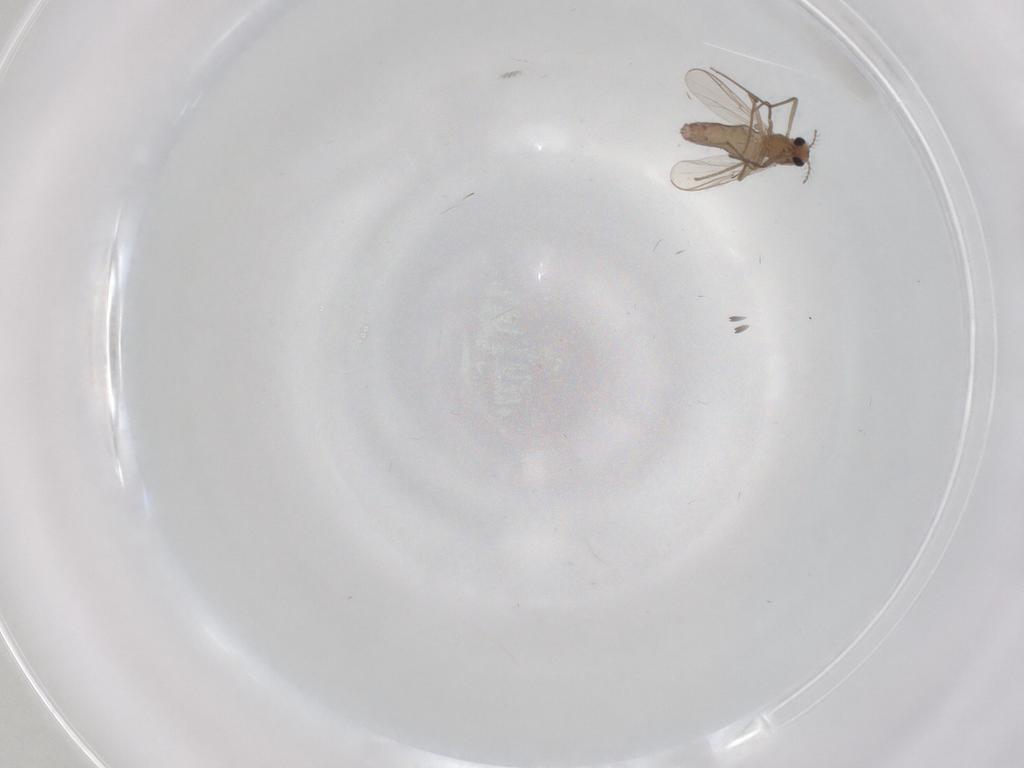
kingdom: Animalia
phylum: Arthropoda
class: Insecta
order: Diptera
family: Chironomidae
